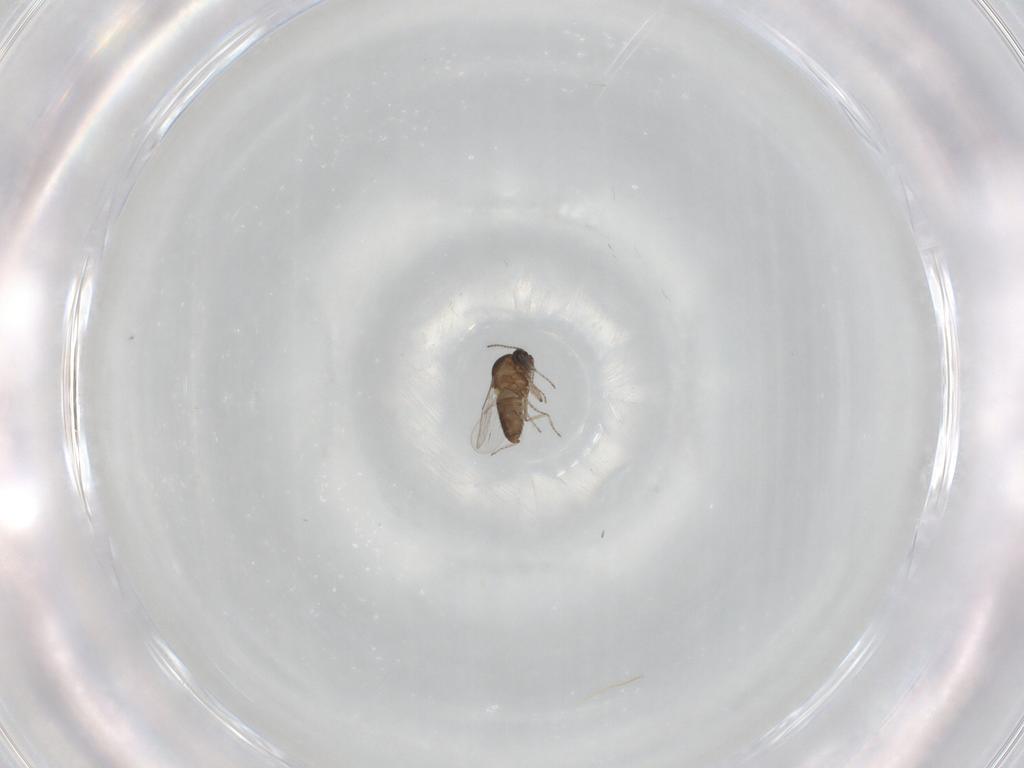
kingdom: Animalia
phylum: Arthropoda
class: Insecta
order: Diptera
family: Ceratopogonidae
